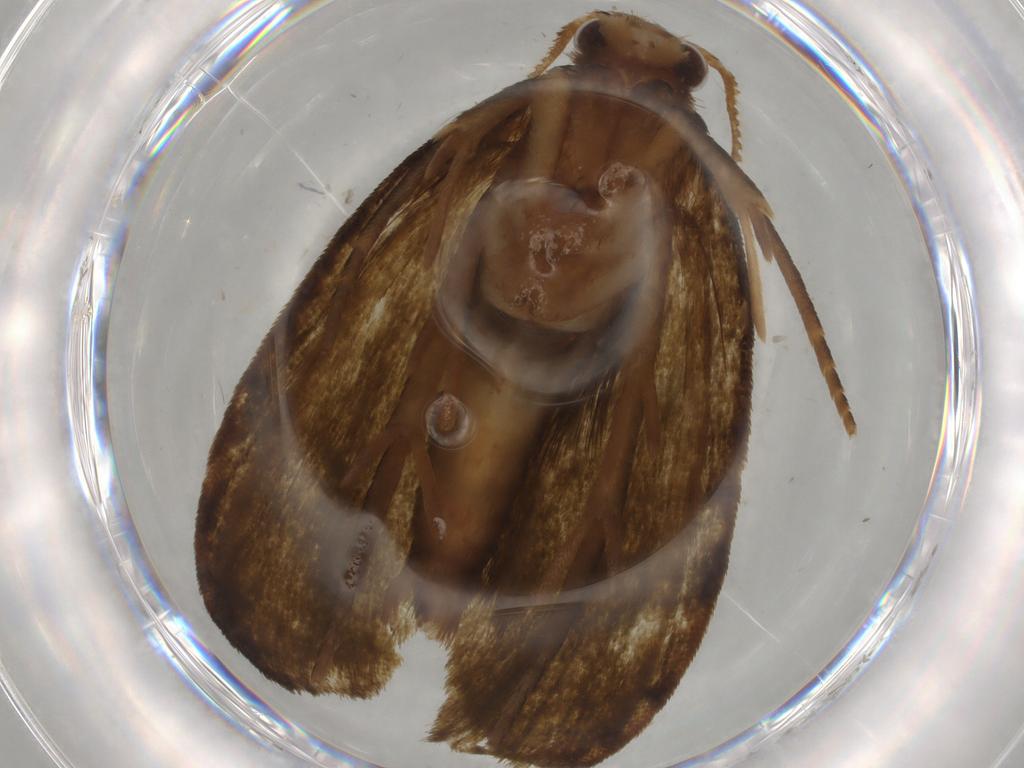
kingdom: Animalia
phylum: Arthropoda
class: Insecta
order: Lepidoptera
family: Geometridae
